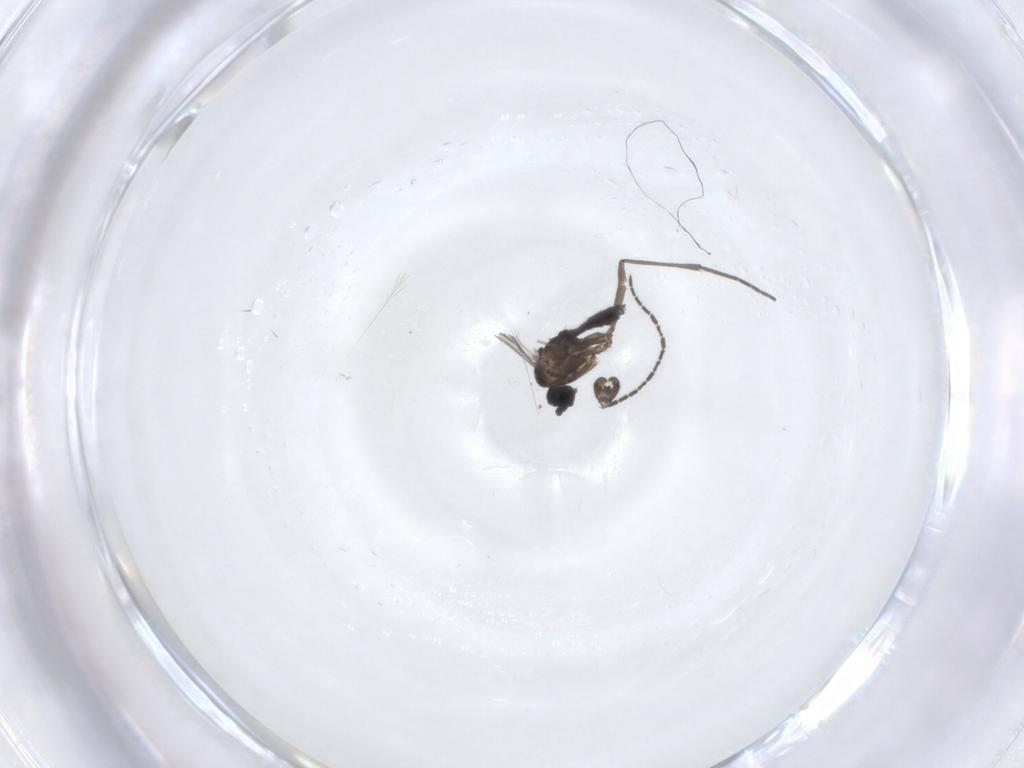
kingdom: Animalia
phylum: Arthropoda
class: Insecta
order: Diptera
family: Sciaridae
